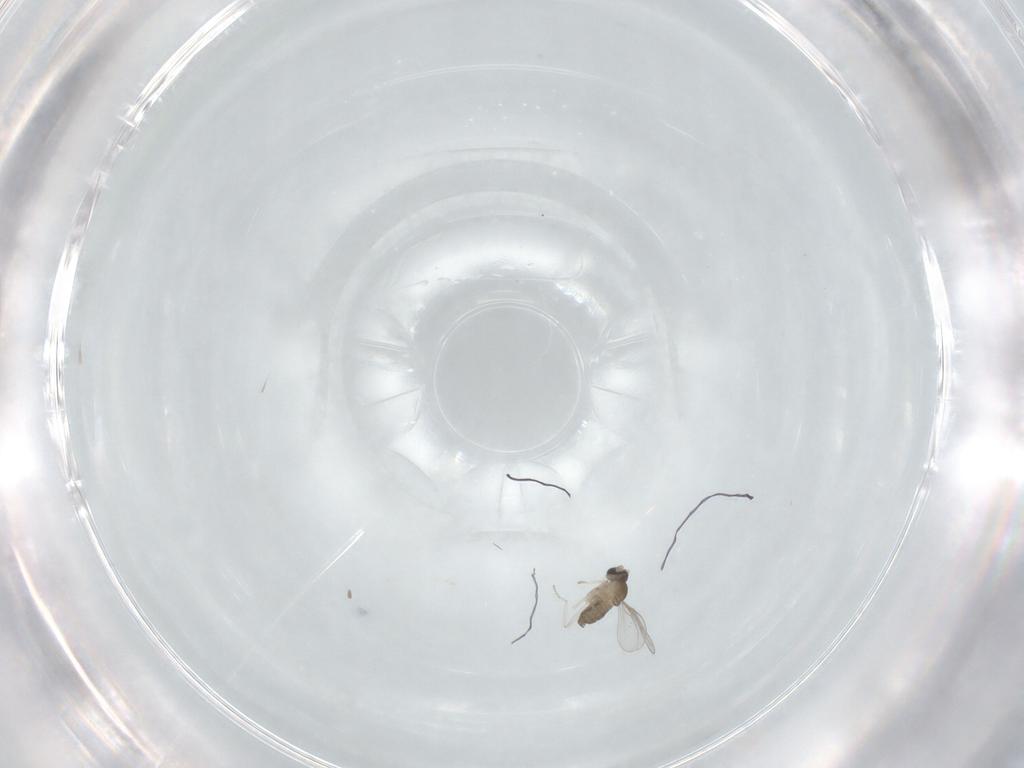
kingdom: Animalia
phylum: Arthropoda
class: Insecta
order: Diptera
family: Cecidomyiidae
